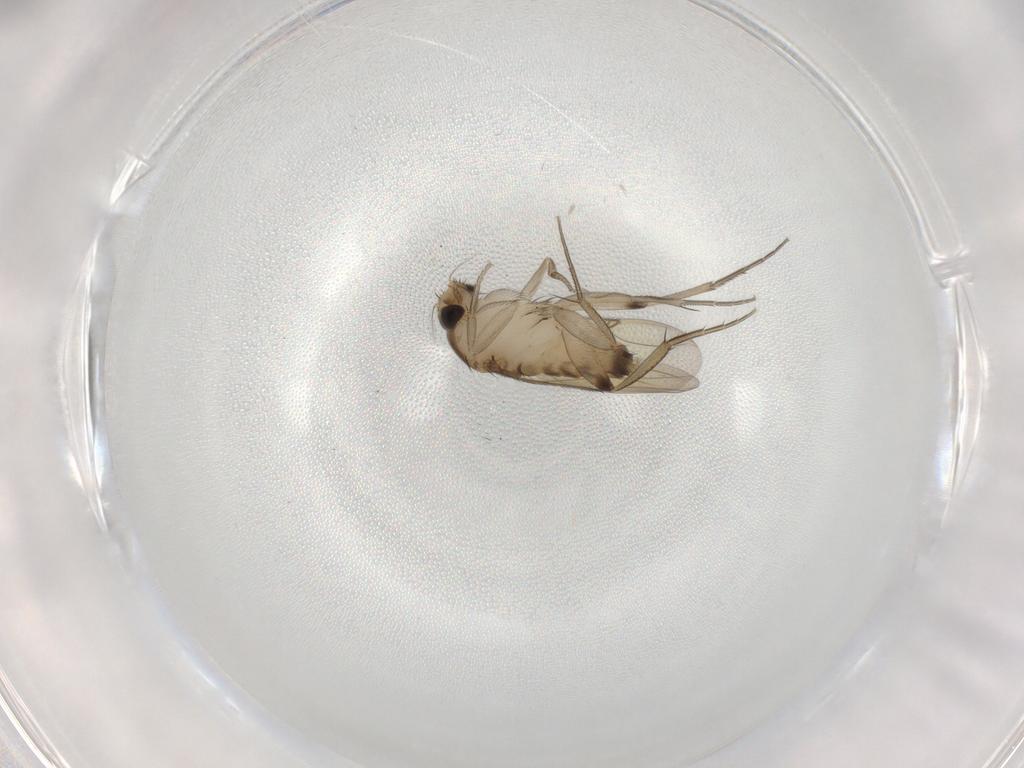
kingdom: Animalia
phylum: Arthropoda
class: Insecta
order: Diptera
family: Phoridae
